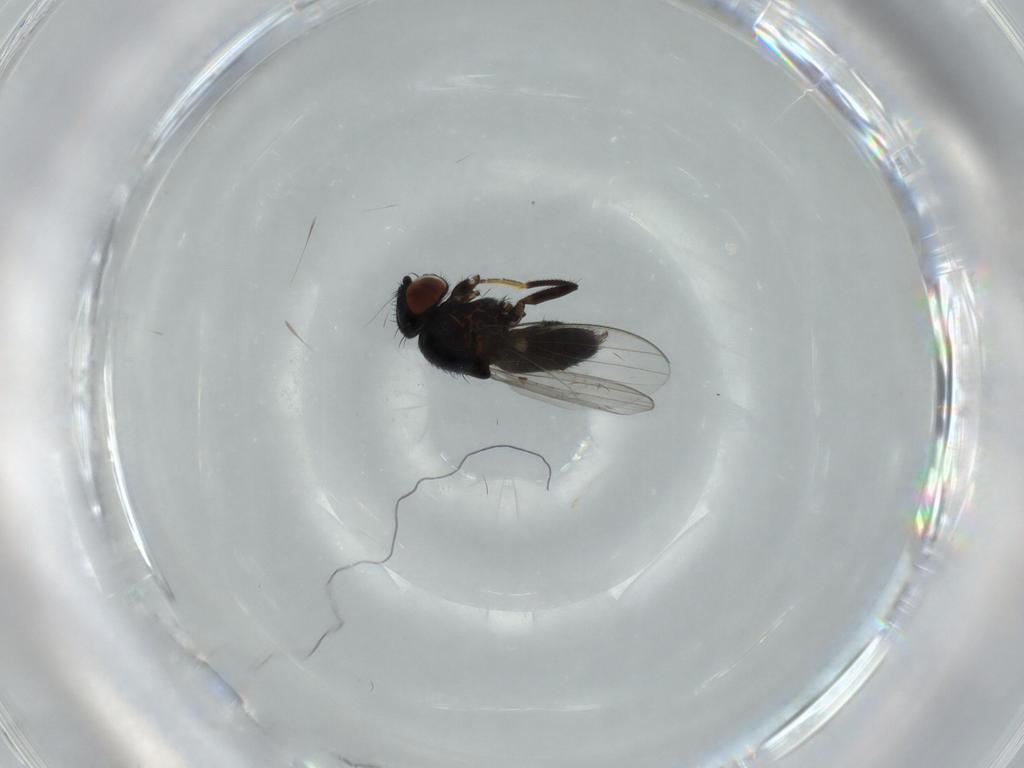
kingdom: Animalia
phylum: Arthropoda
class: Insecta
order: Diptera
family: Milichiidae
